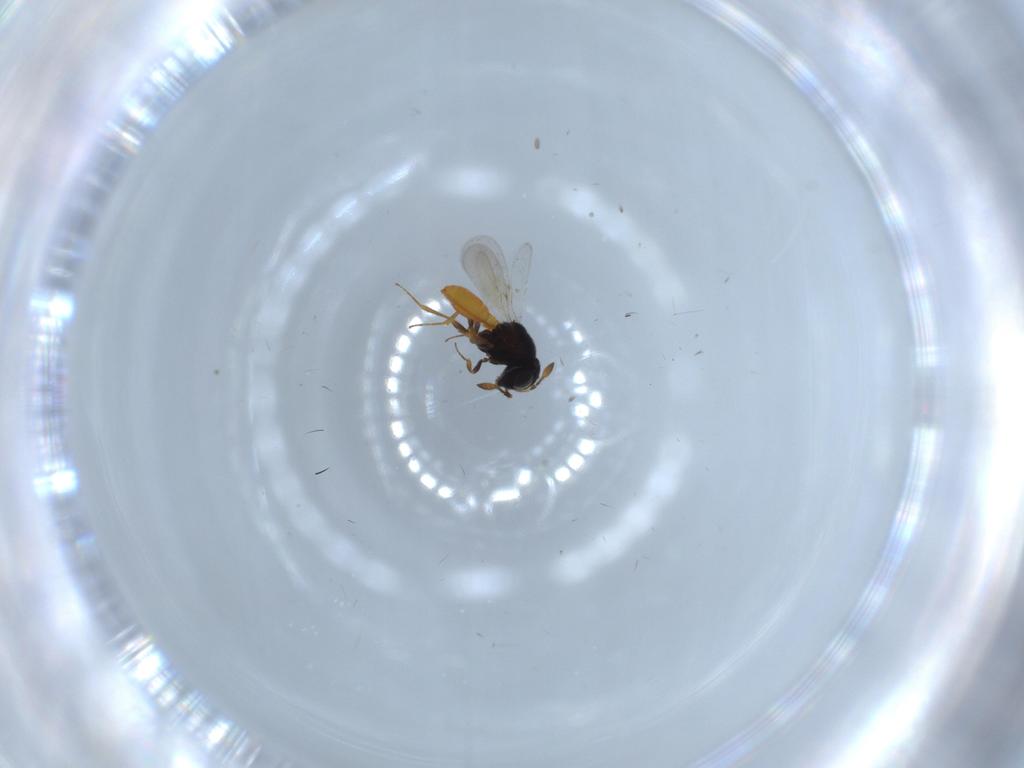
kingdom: Animalia
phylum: Arthropoda
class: Insecta
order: Hymenoptera
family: Scelionidae
